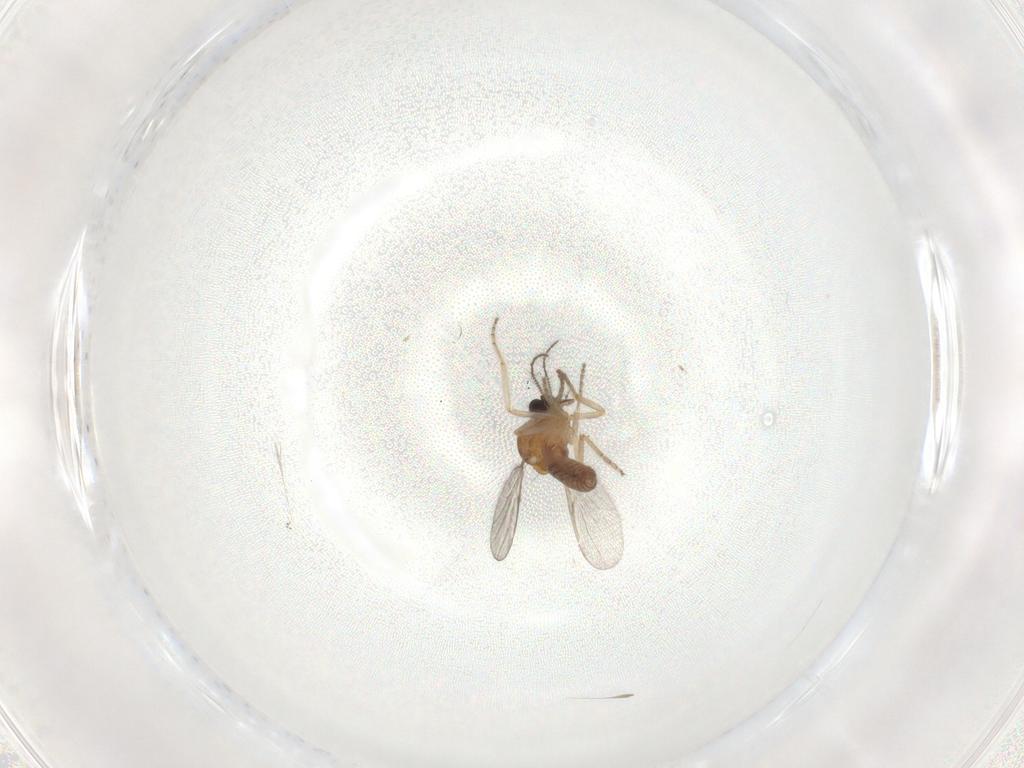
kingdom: Animalia
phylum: Arthropoda
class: Insecta
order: Diptera
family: Ceratopogonidae
